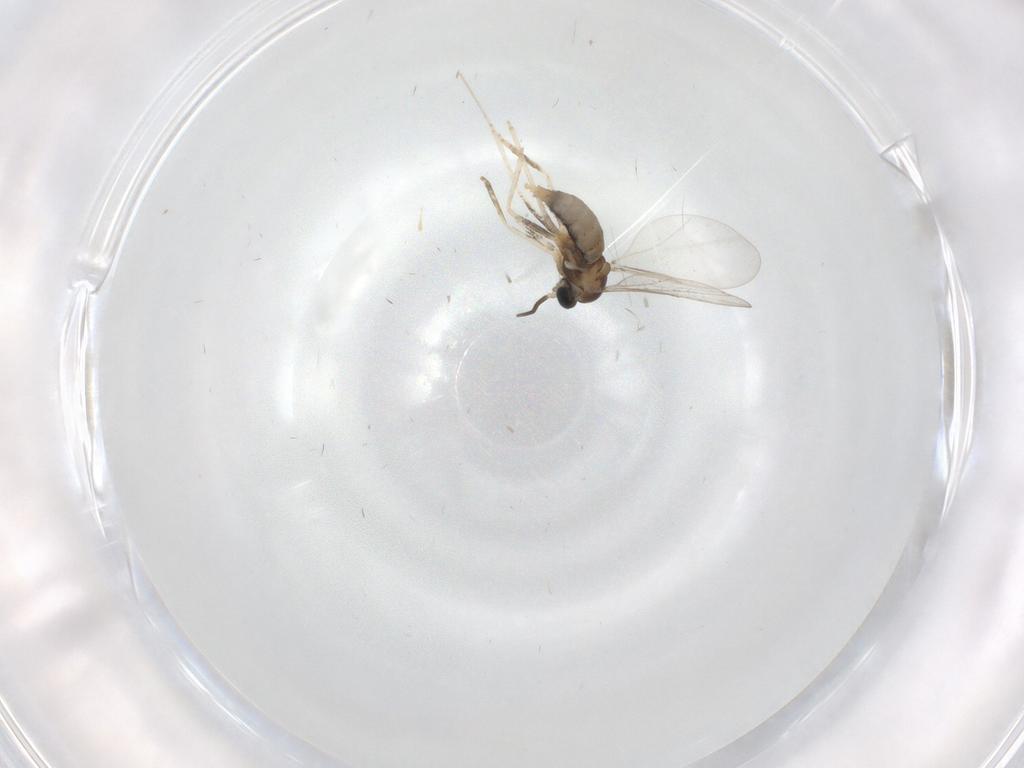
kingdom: Animalia
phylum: Arthropoda
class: Insecta
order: Diptera
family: Cecidomyiidae
